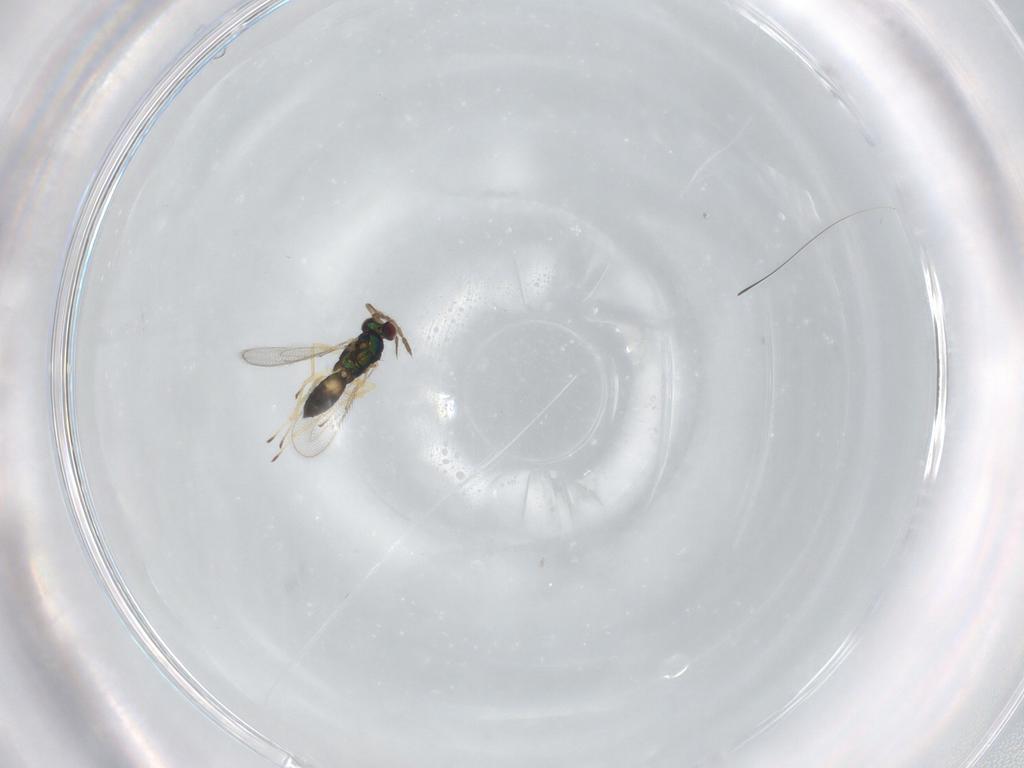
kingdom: Animalia
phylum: Arthropoda
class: Insecta
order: Hymenoptera
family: Eulophidae
